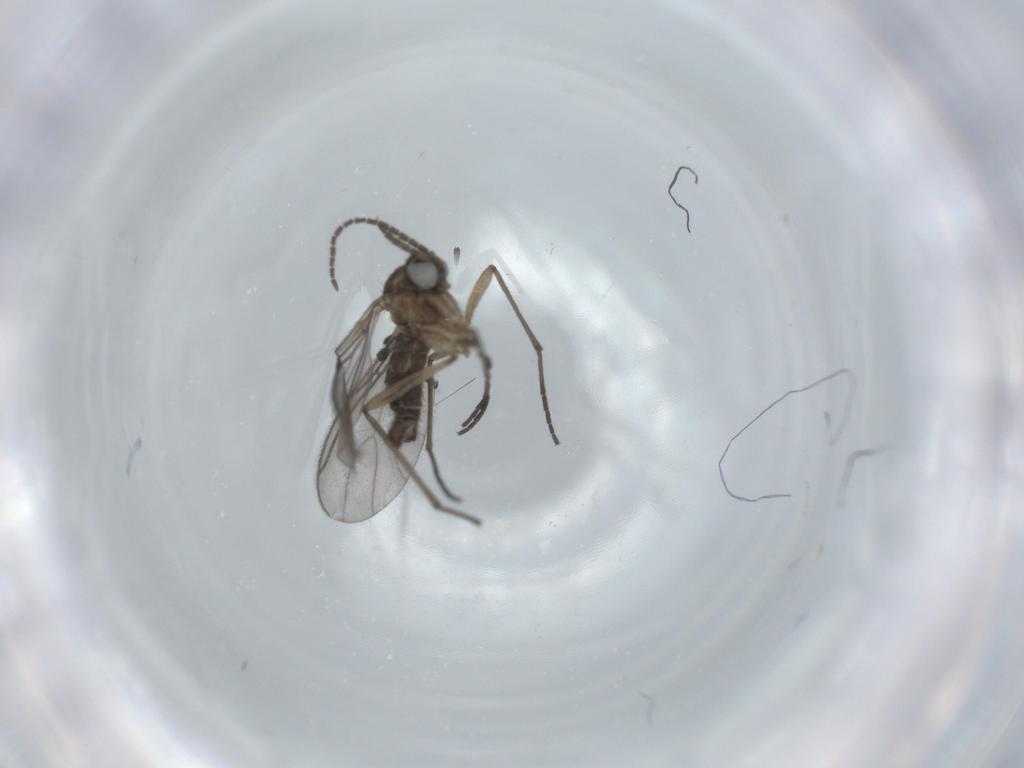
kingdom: Animalia
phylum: Arthropoda
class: Insecta
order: Diptera
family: Sciaridae
